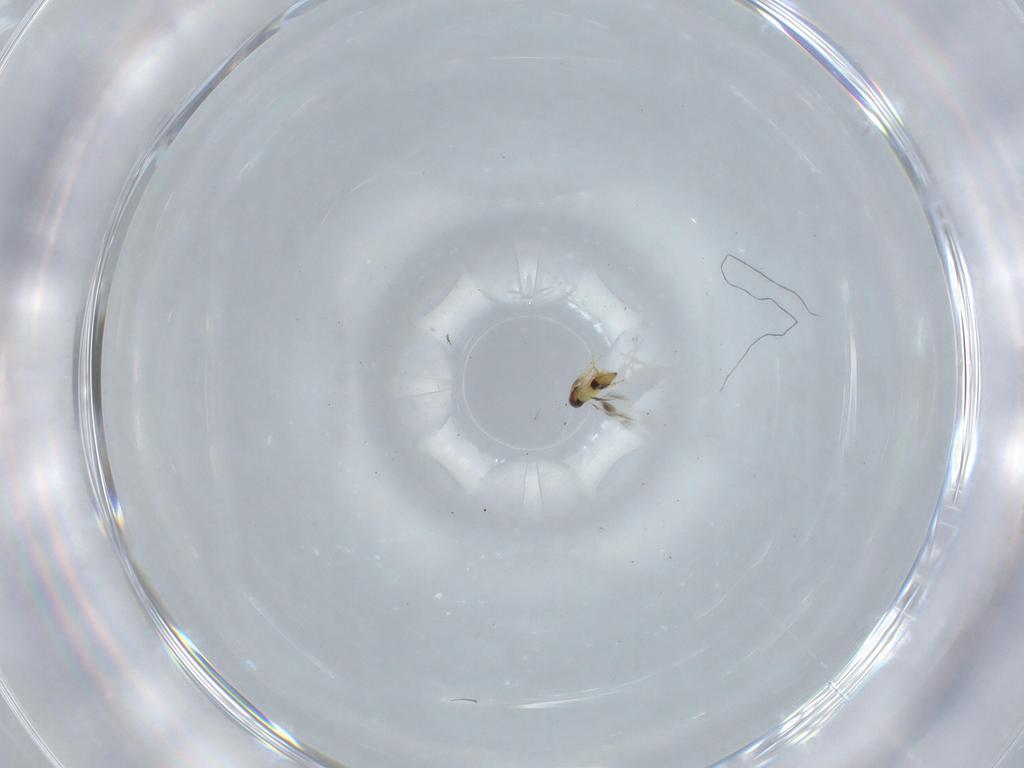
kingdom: Animalia
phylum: Arthropoda
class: Insecta
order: Hymenoptera
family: Signiphoridae
